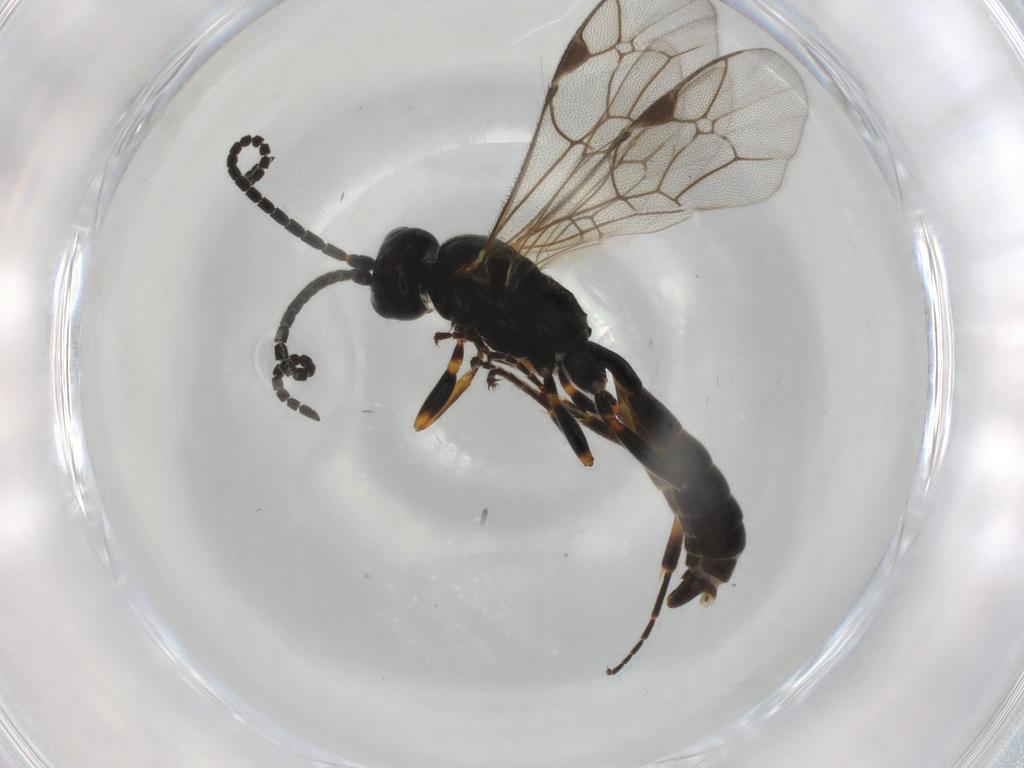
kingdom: Animalia
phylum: Arthropoda
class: Insecta
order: Hymenoptera
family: Ichneumonidae
